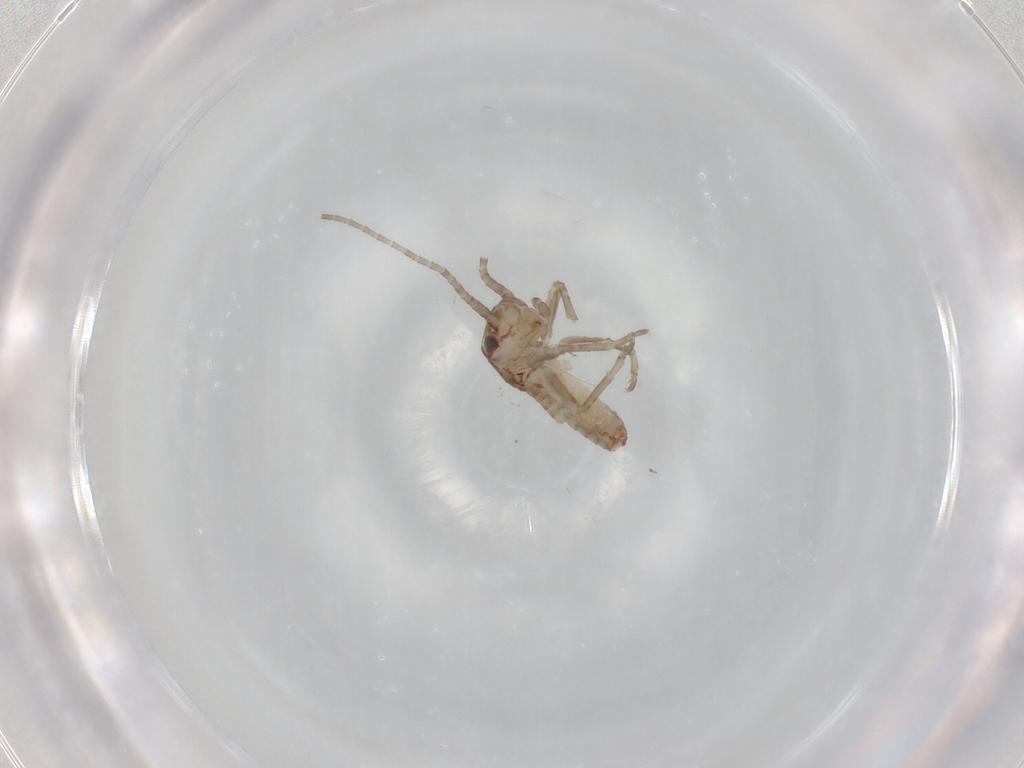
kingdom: Animalia
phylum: Arthropoda
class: Insecta
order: Orthoptera
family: Mogoplistidae
